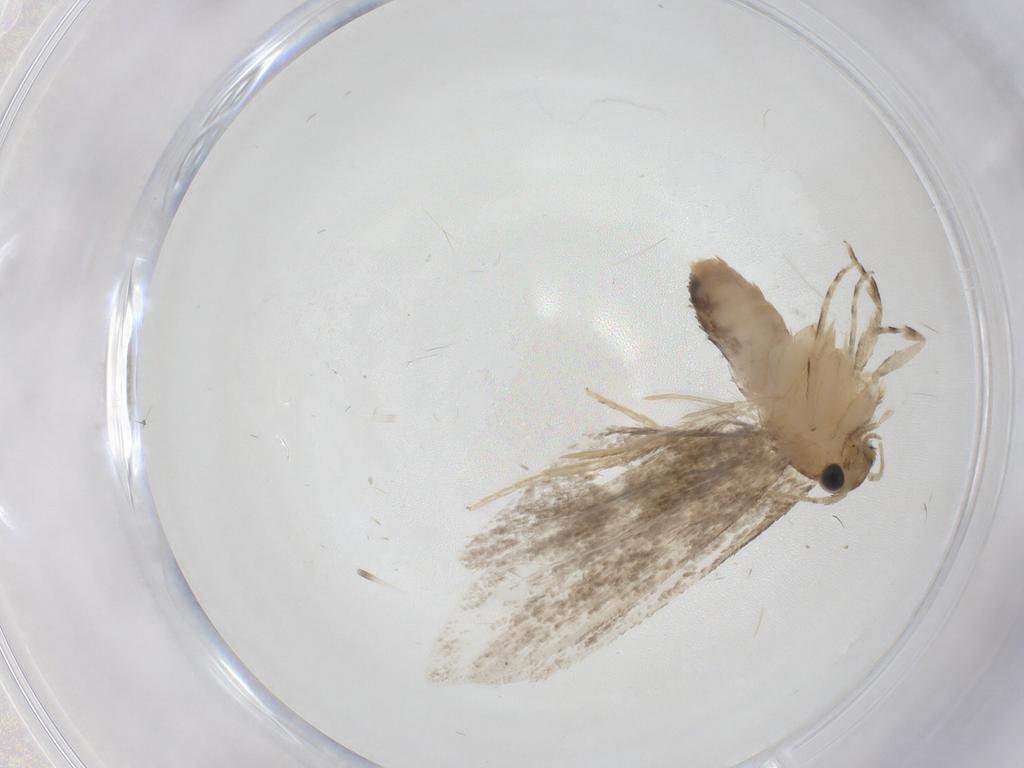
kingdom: Animalia
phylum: Arthropoda
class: Insecta
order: Lepidoptera
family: Tineidae
